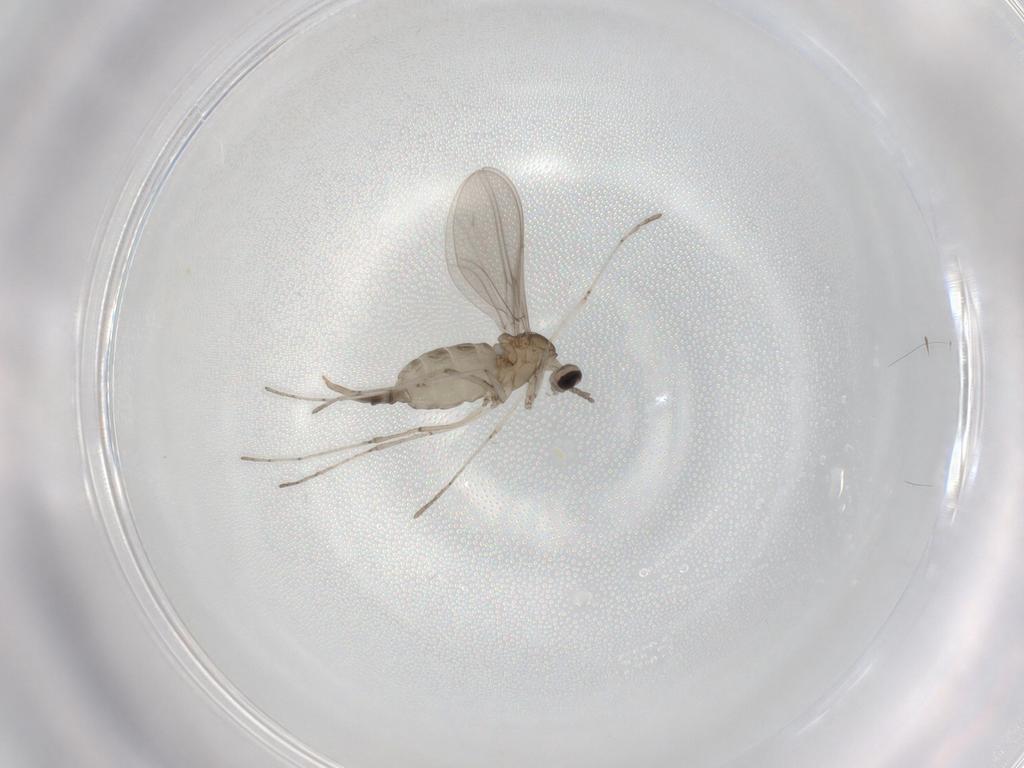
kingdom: Animalia
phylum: Arthropoda
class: Insecta
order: Diptera
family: Cecidomyiidae
